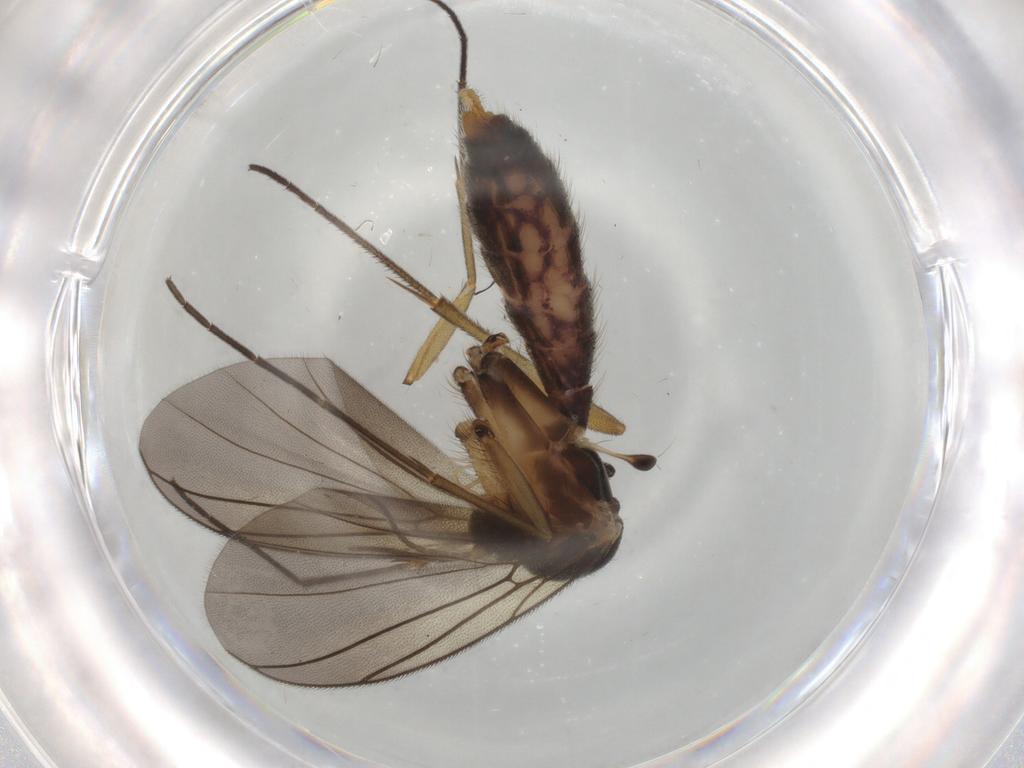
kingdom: Animalia
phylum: Arthropoda
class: Insecta
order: Diptera
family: Mycetophilidae
